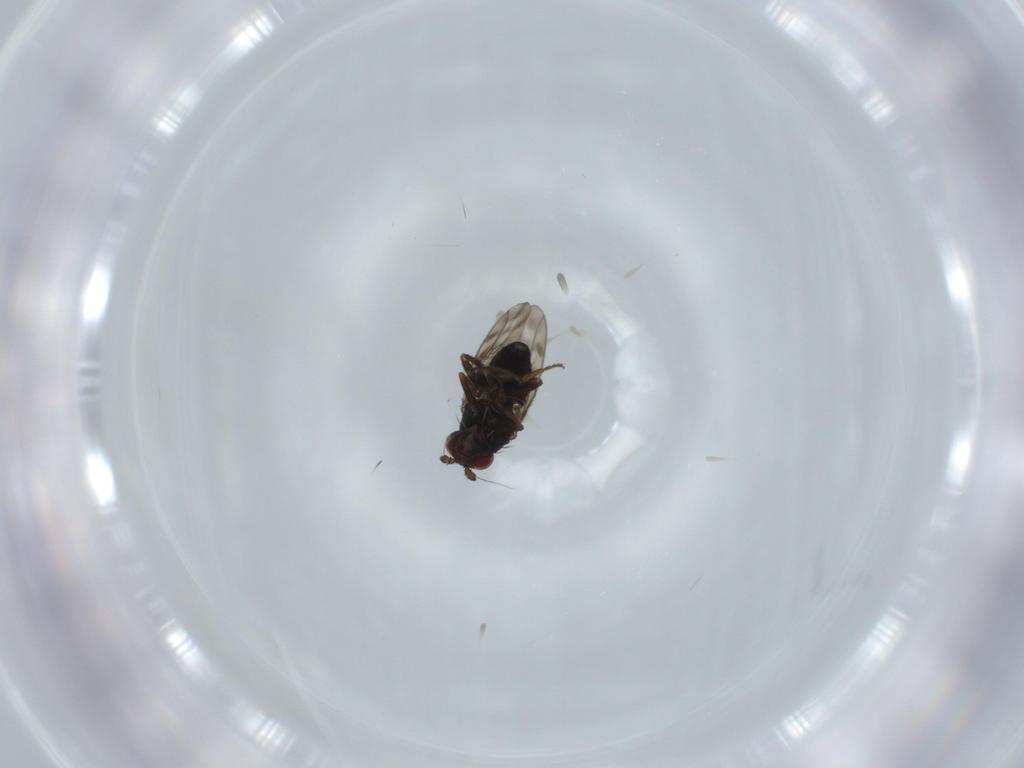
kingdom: Animalia
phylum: Arthropoda
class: Insecta
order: Diptera
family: Sphaeroceridae
